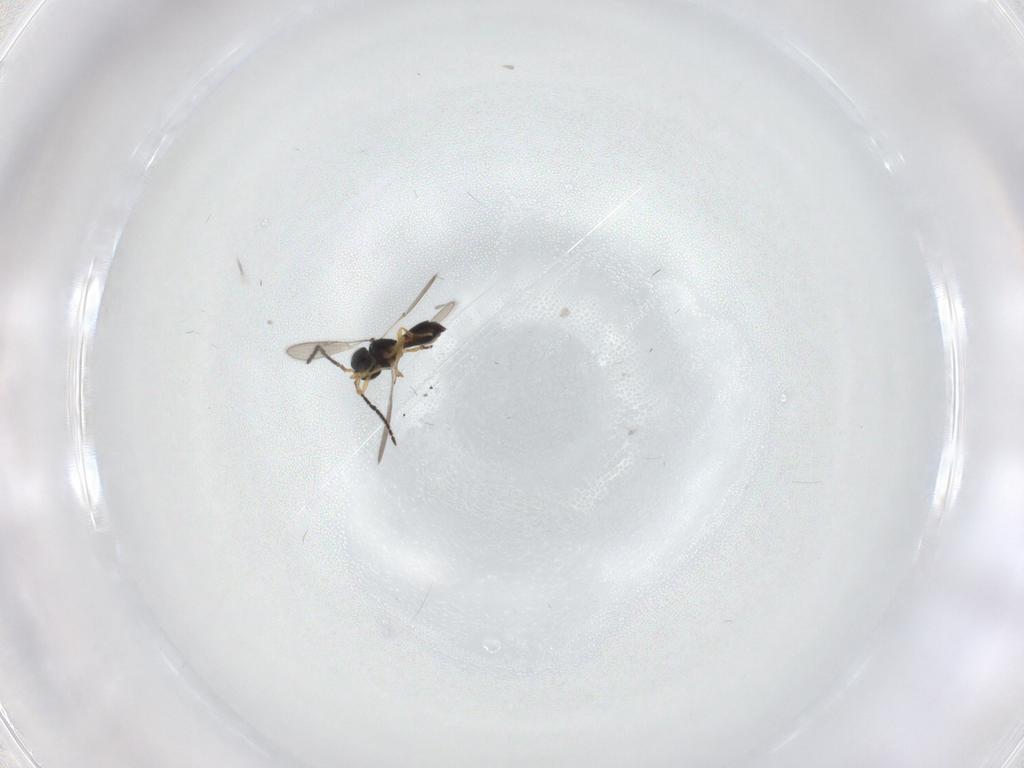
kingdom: Animalia
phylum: Arthropoda
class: Insecta
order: Hymenoptera
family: Scelionidae
